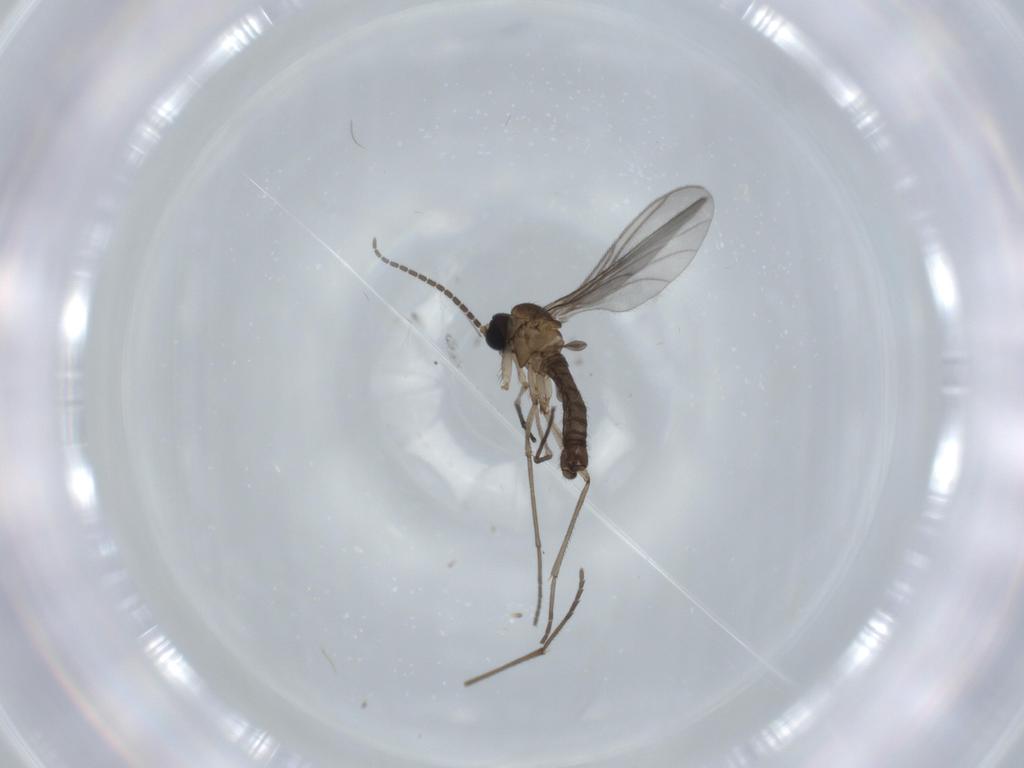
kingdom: Animalia
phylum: Arthropoda
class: Insecta
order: Diptera
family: Sciaridae
